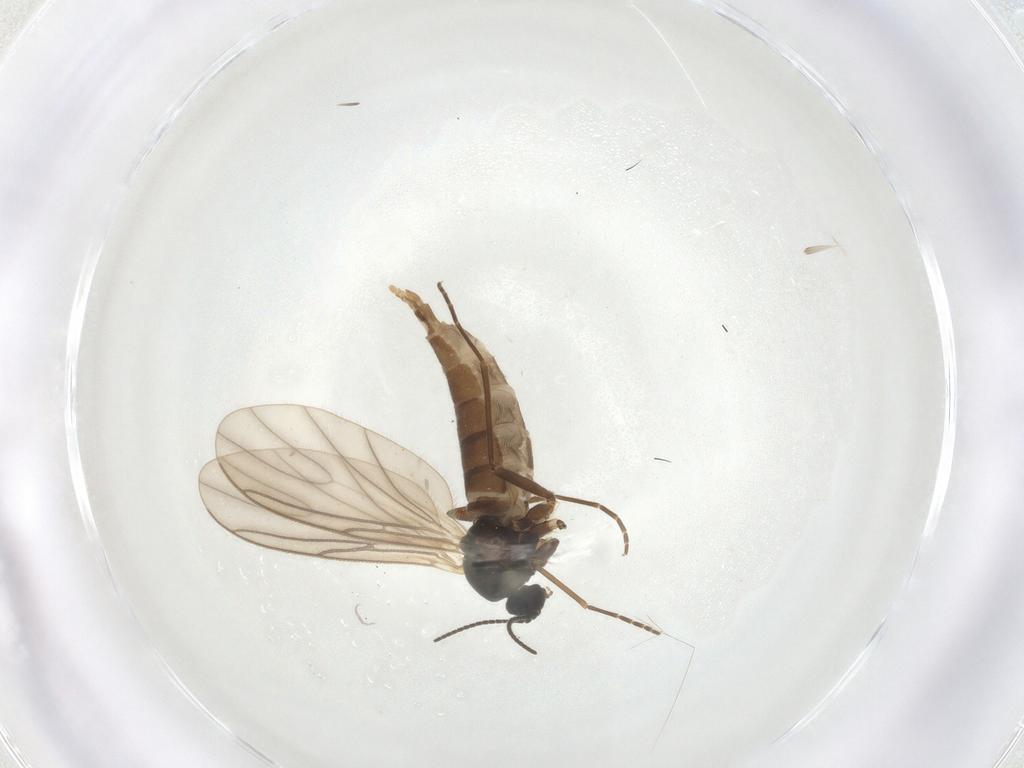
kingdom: Animalia
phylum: Arthropoda
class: Insecta
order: Diptera
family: Sciaridae
